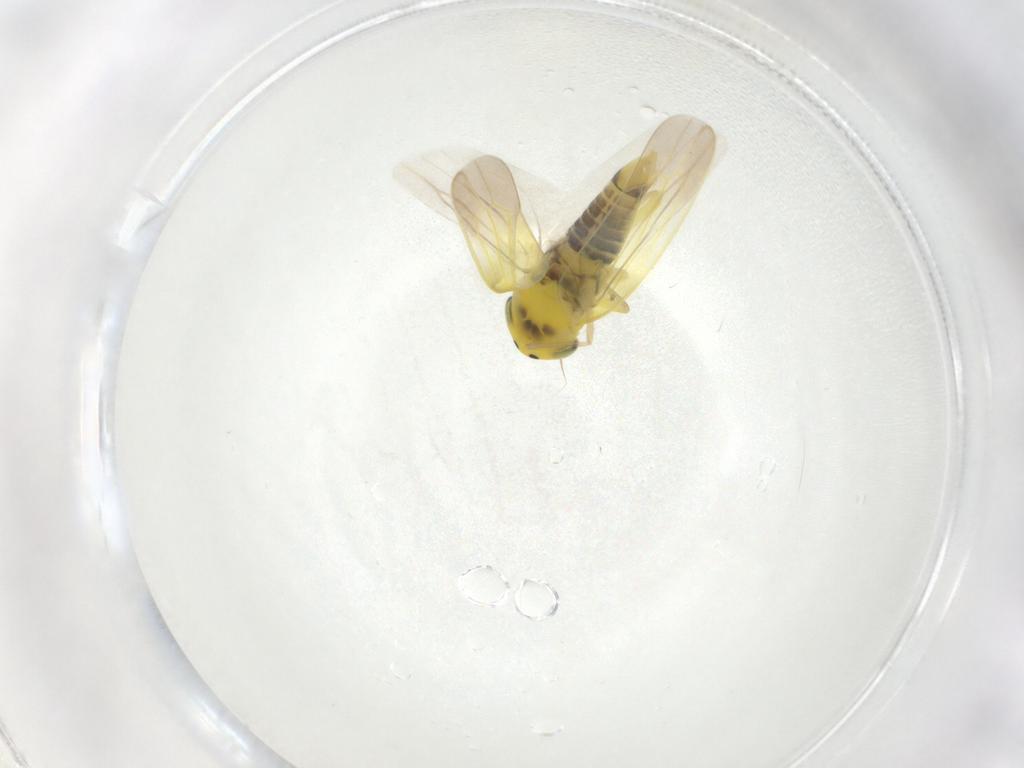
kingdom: Animalia
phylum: Arthropoda
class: Insecta
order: Hemiptera
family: Cicadellidae
